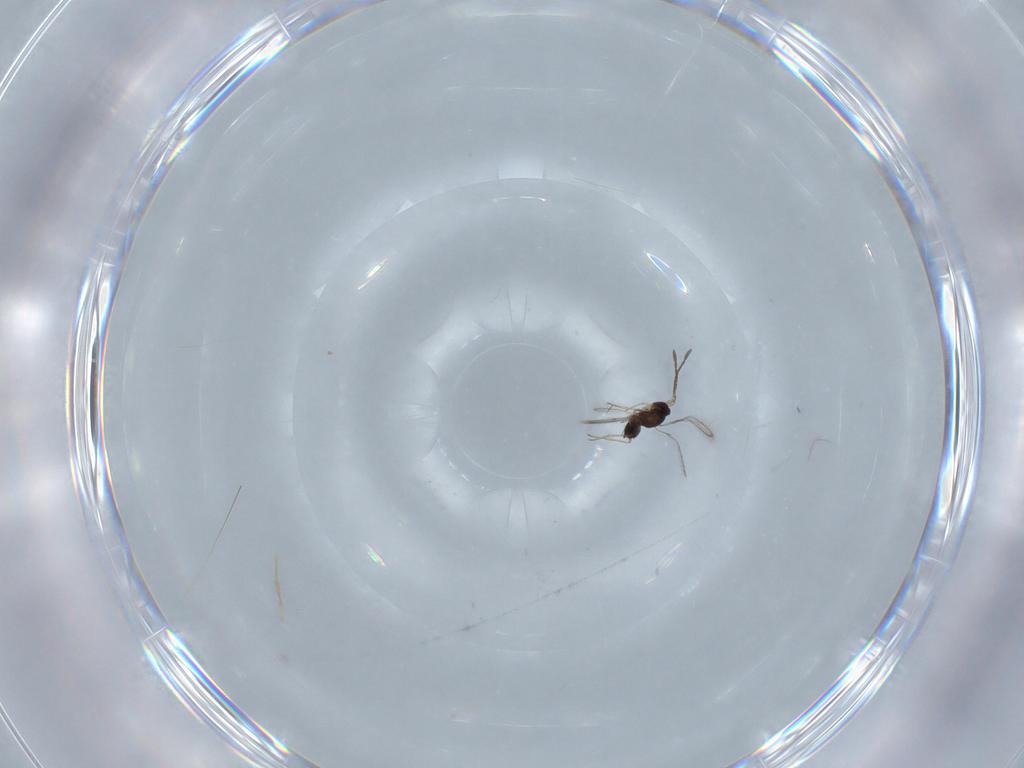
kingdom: Animalia
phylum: Arthropoda
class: Insecta
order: Hymenoptera
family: Mymaridae
